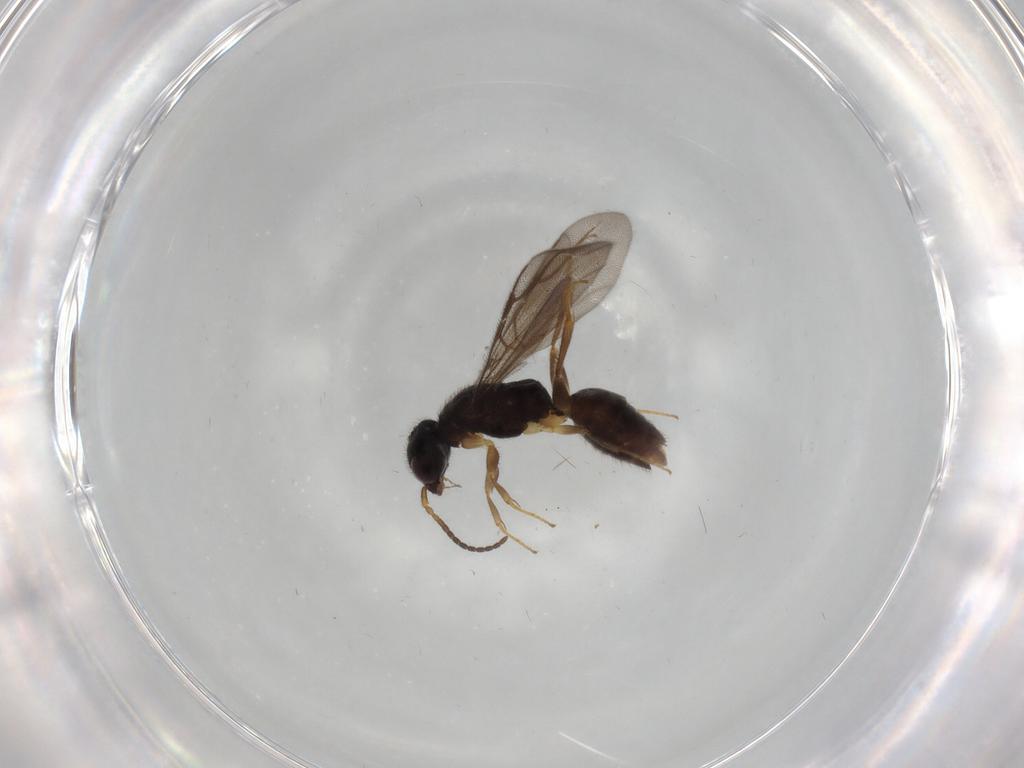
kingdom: Animalia
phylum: Arthropoda
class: Insecta
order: Hymenoptera
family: Bethylidae
